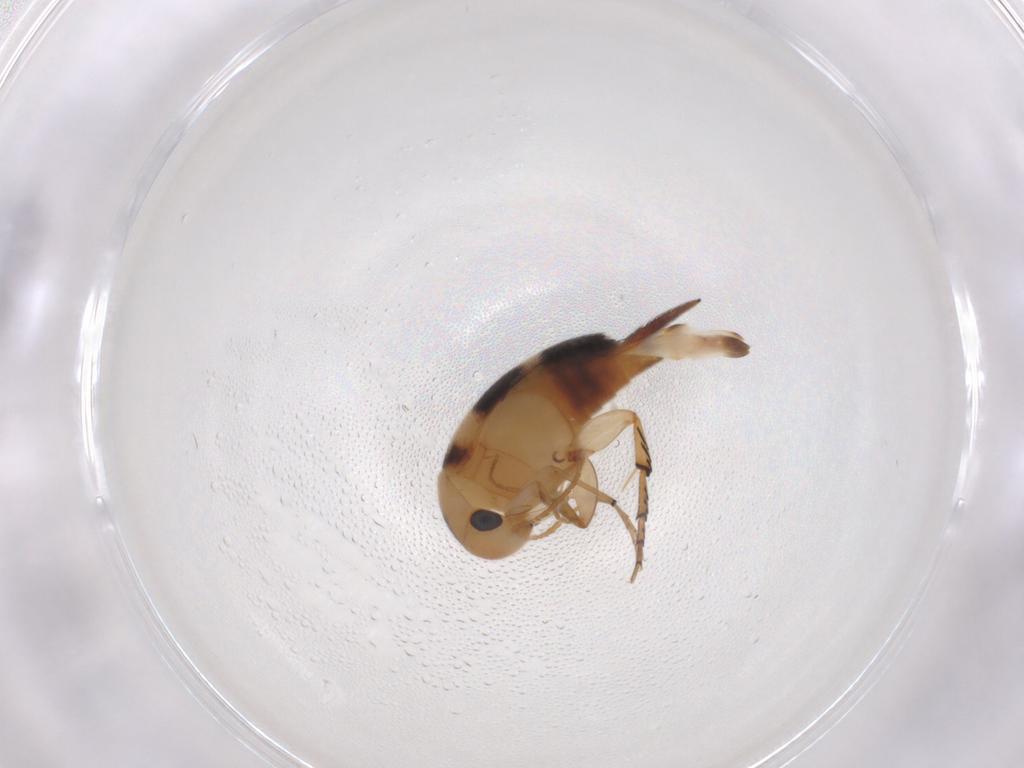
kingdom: Animalia
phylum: Arthropoda
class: Insecta
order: Coleoptera
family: Mordellidae
